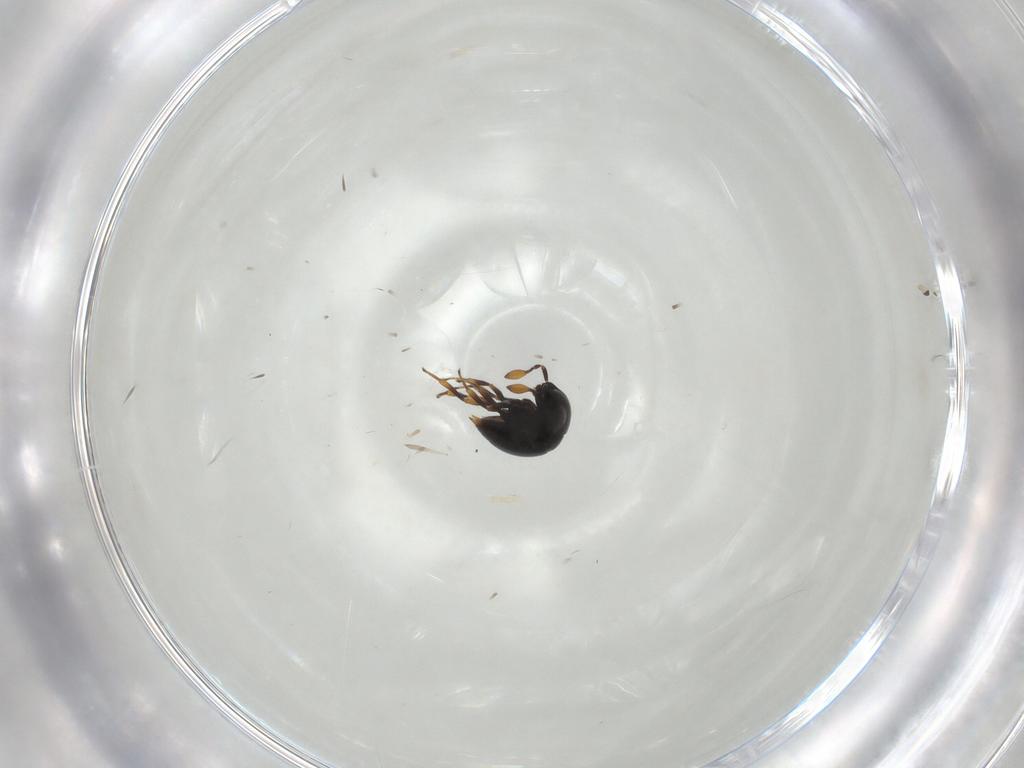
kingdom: Animalia
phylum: Arthropoda
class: Insecta
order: Hymenoptera
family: Scelionidae
